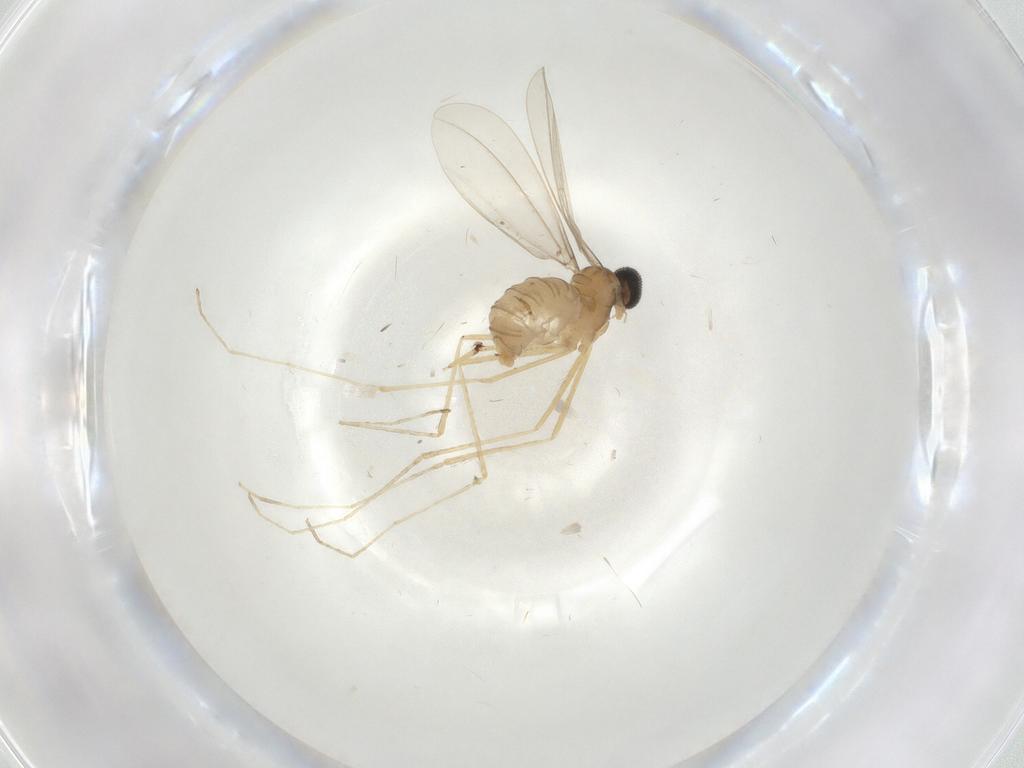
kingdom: Animalia
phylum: Arthropoda
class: Insecta
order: Diptera
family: Cecidomyiidae
